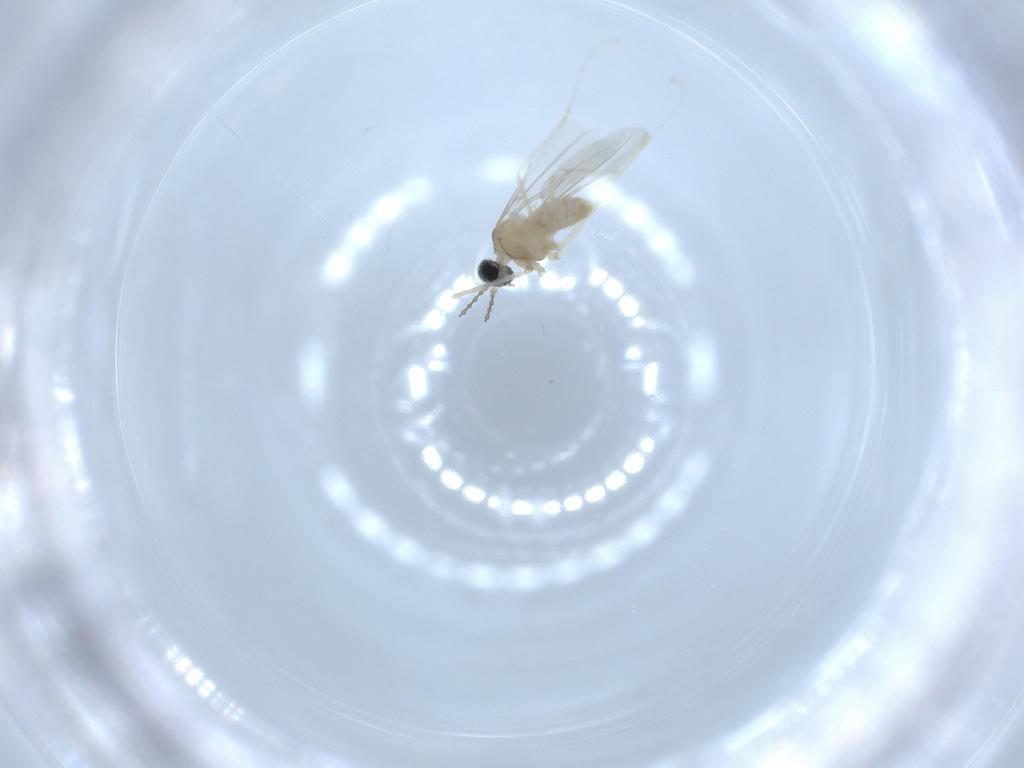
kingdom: Animalia
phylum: Arthropoda
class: Insecta
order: Diptera
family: Cecidomyiidae
